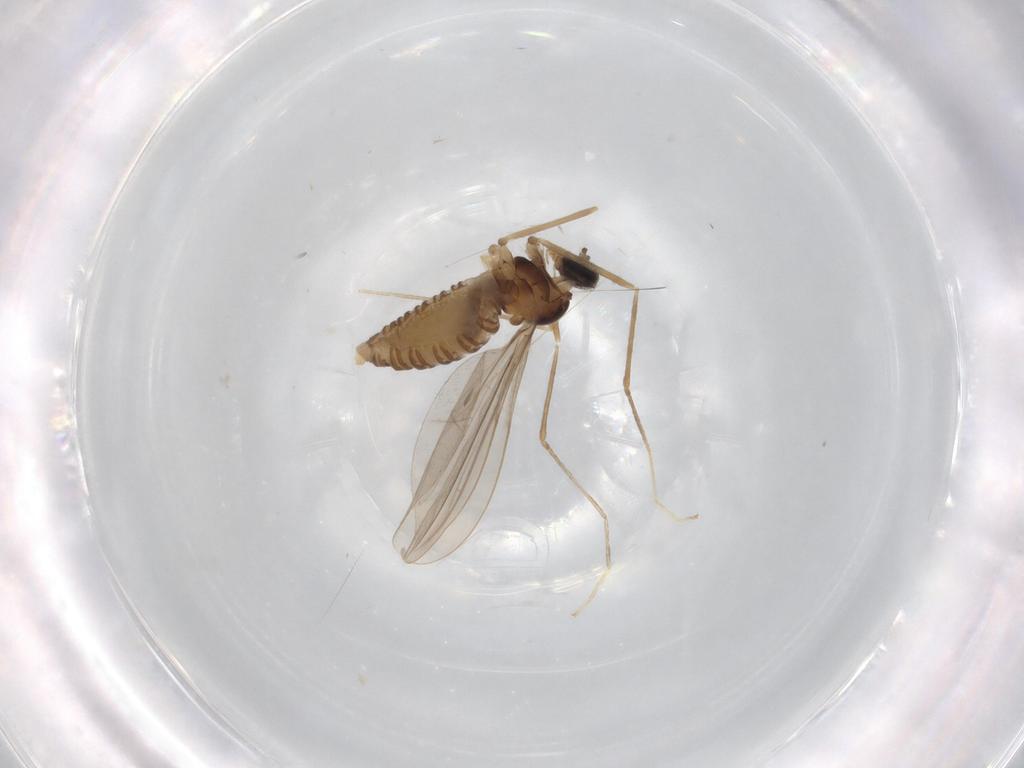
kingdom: Animalia
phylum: Arthropoda
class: Insecta
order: Diptera
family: Cecidomyiidae
